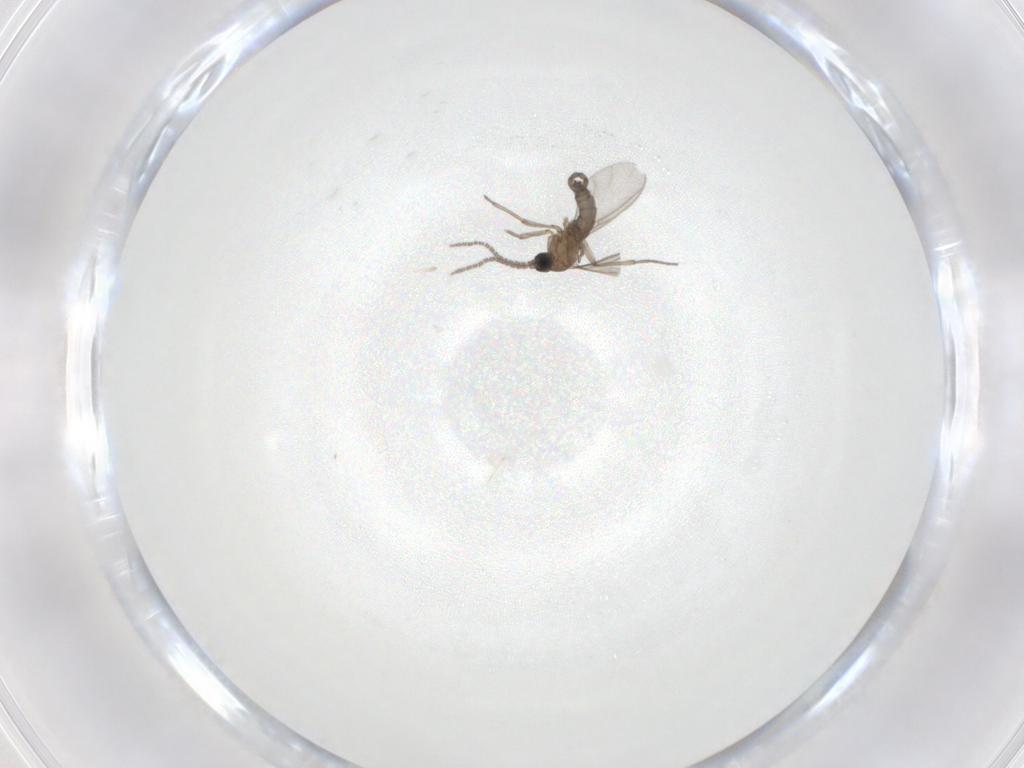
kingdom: Animalia
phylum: Arthropoda
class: Insecta
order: Diptera
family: Sciaridae
